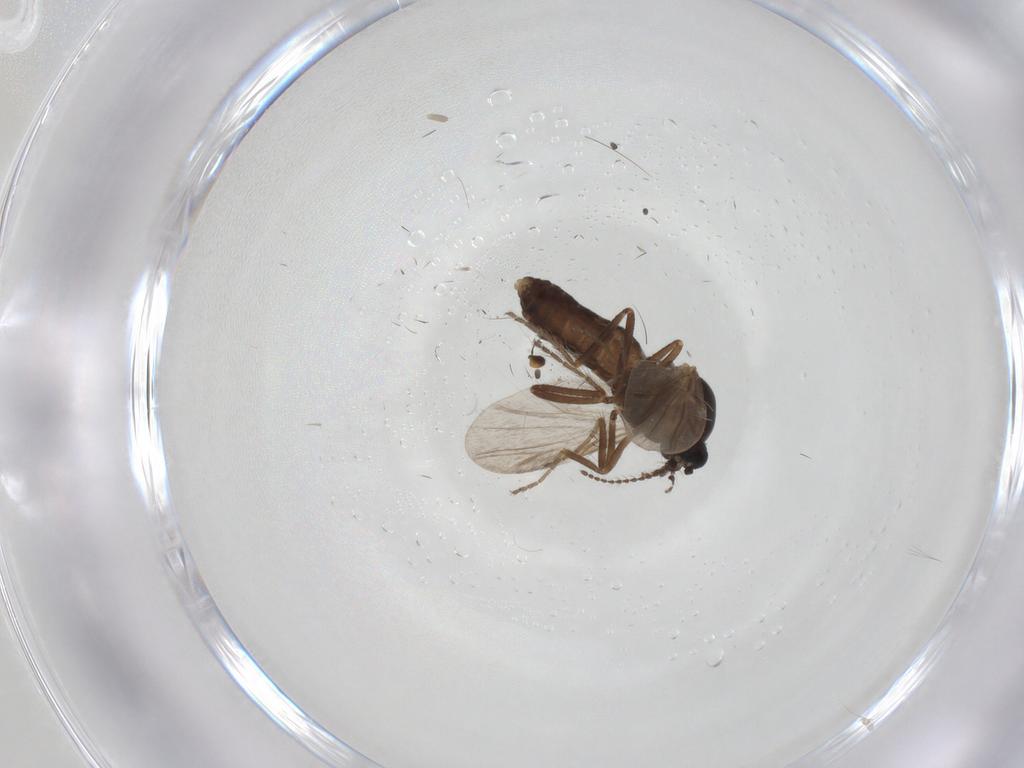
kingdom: Animalia
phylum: Arthropoda
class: Insecta
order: Diptera
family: Ceratopogonidae
